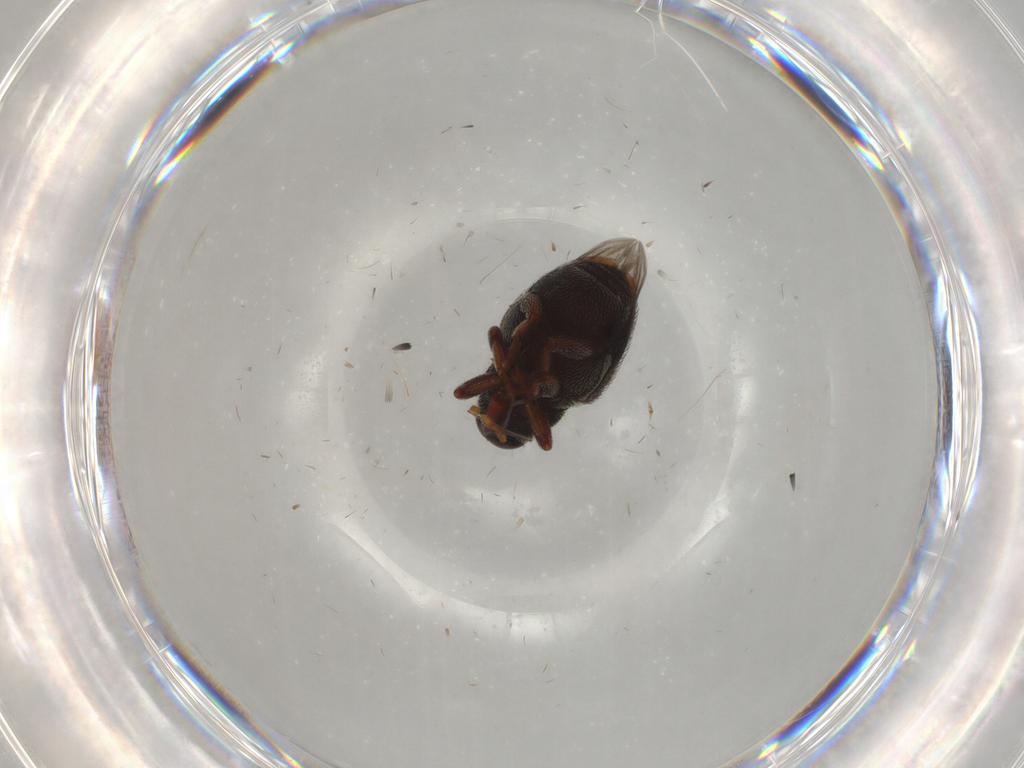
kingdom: Animalia
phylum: Arthropoda
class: Insecta
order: Coleoptera
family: Curculionidae
